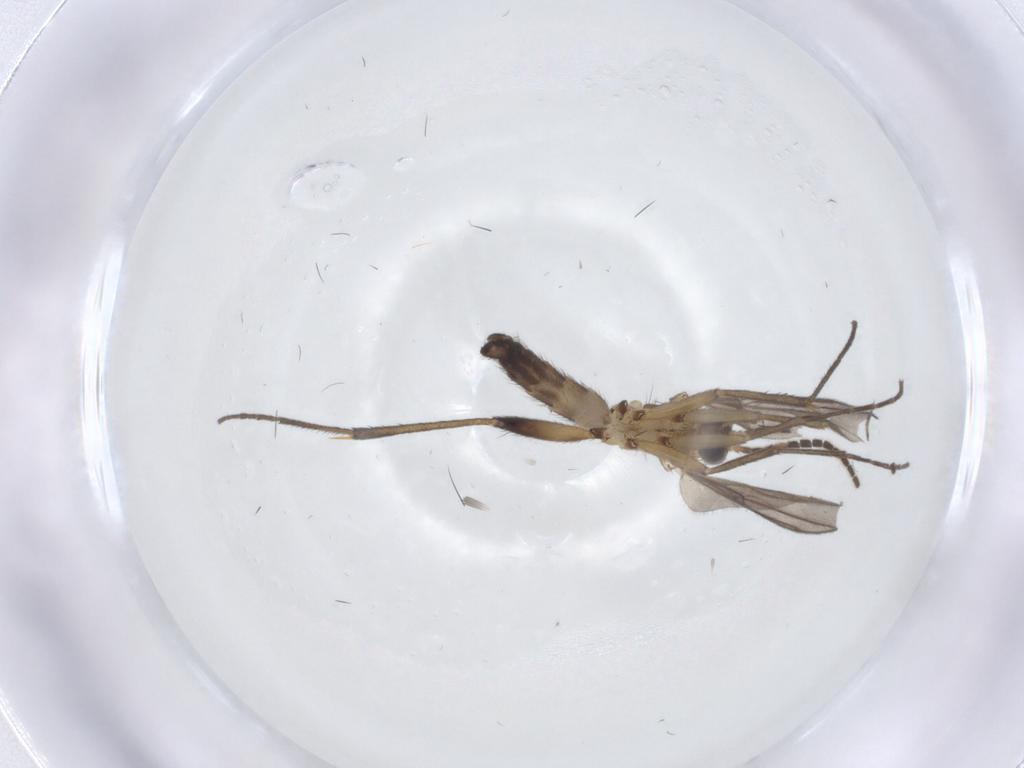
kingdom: Animalia
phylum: Arthropoda
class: Insecta
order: Diptera
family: Mycetophilidae
